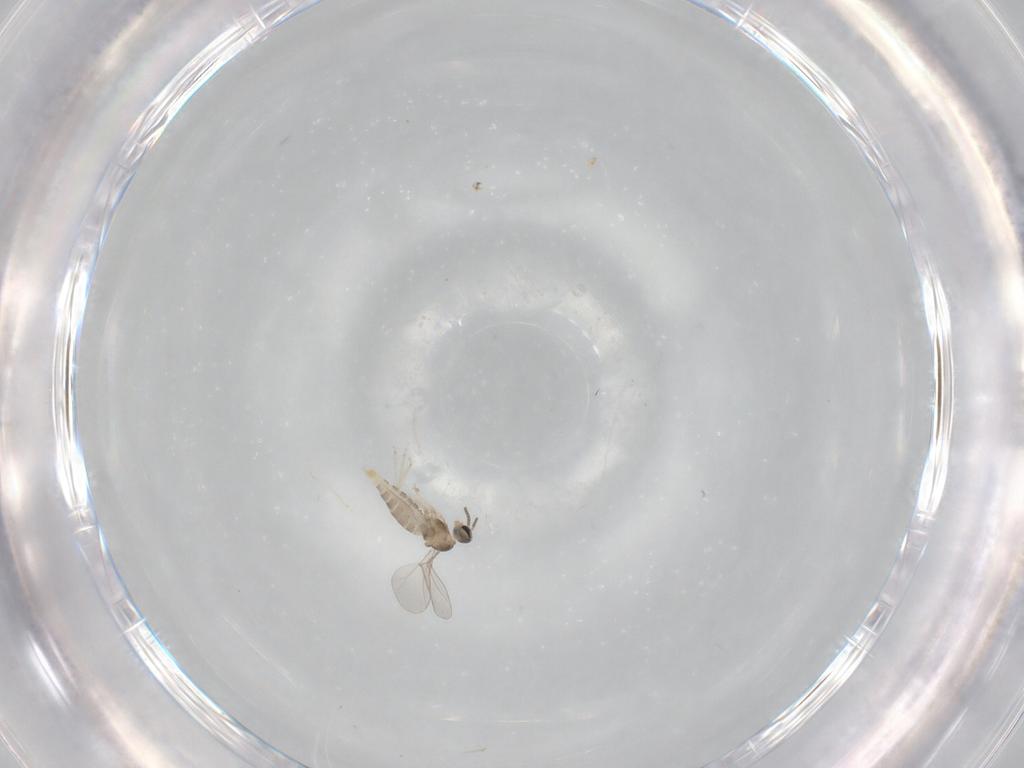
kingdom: Animalia
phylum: Arthropoda
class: Insecta
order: Diptera
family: Cecidomyiidae
